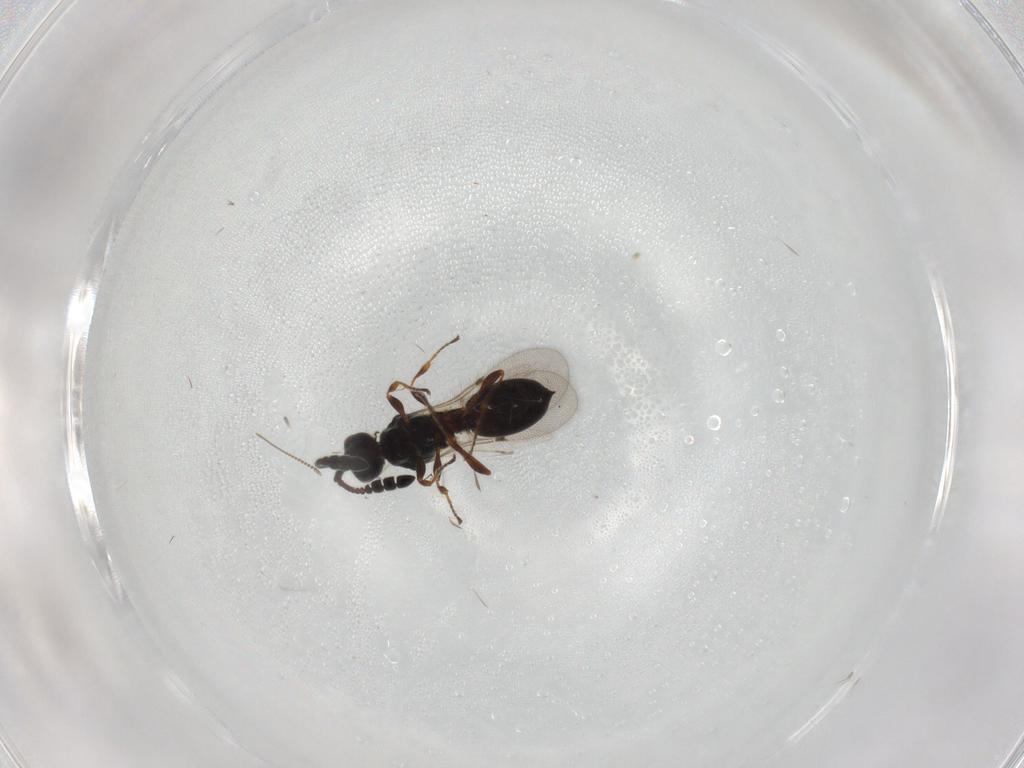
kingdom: Animalia
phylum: Arthropoda
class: Insecta
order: Hymenoptera
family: Diapriidae
